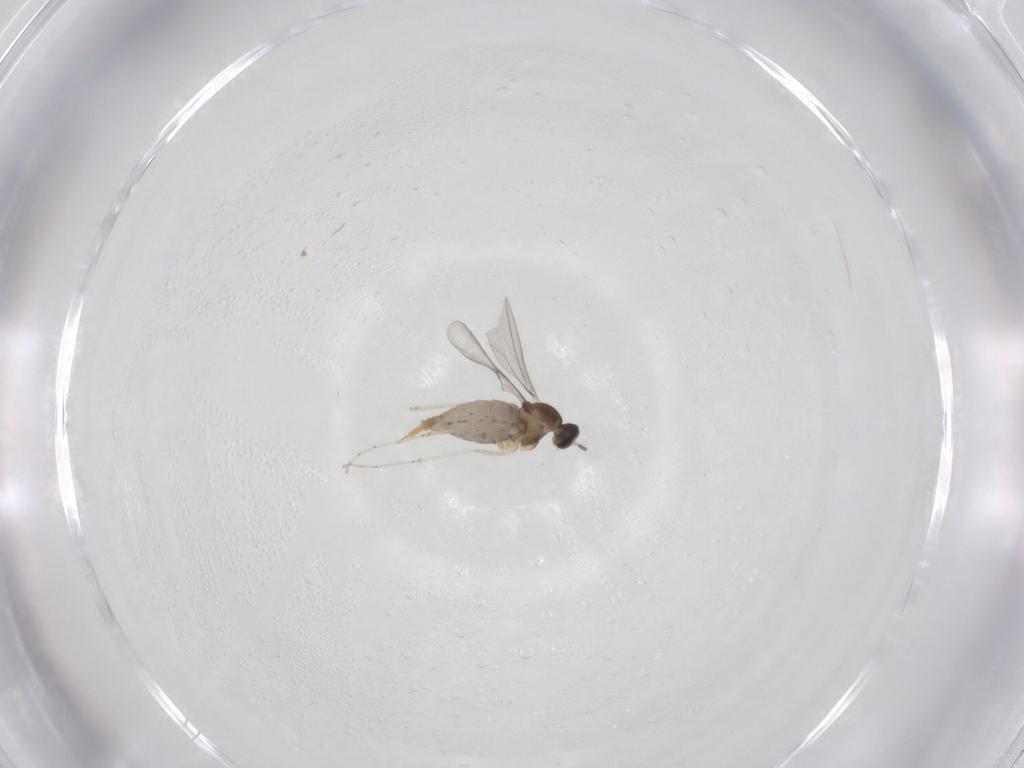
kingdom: Animalia
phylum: Arthropoda
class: Insecta
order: Diptera
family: Cecidomyiidae
